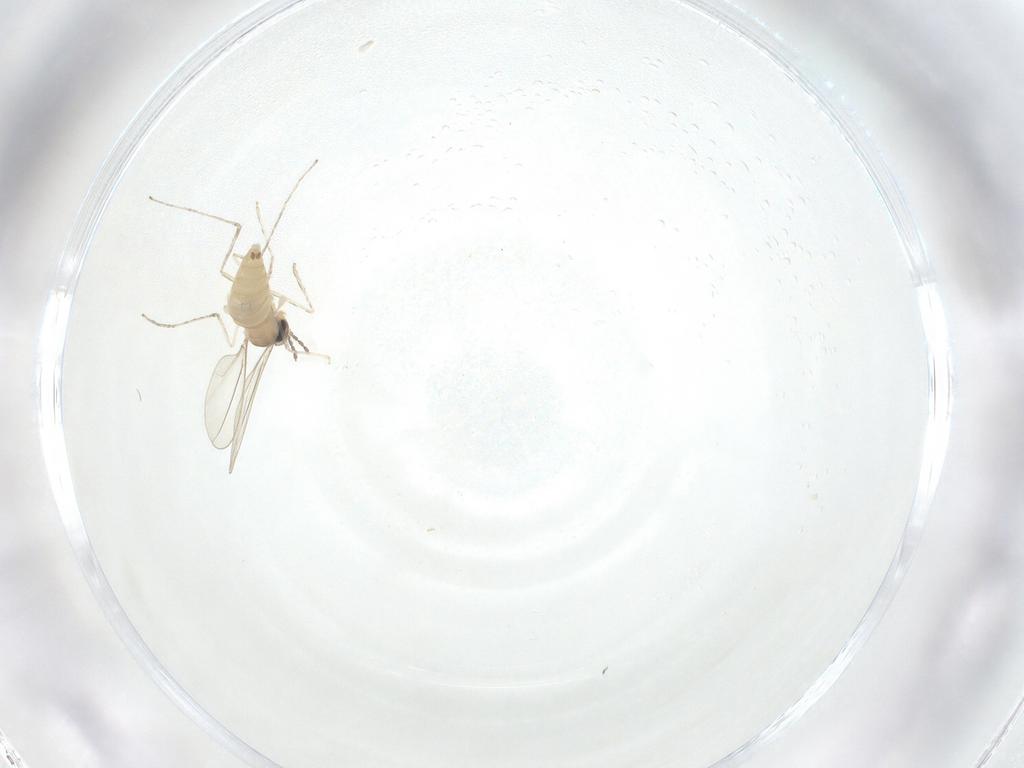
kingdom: Animalia
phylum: Arthropoda
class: Insecta
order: Diptera
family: Cecidomyiidae
